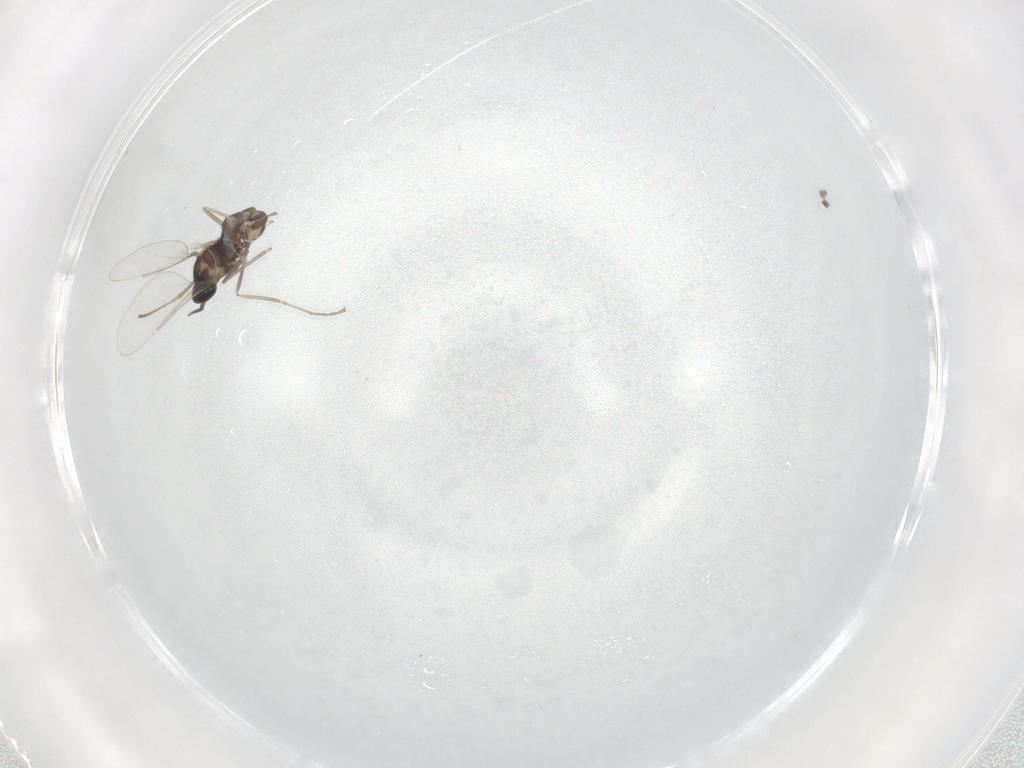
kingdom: Animalia
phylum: Arthropoda
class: Insecta
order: Diptera
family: Cecidomyiidae
